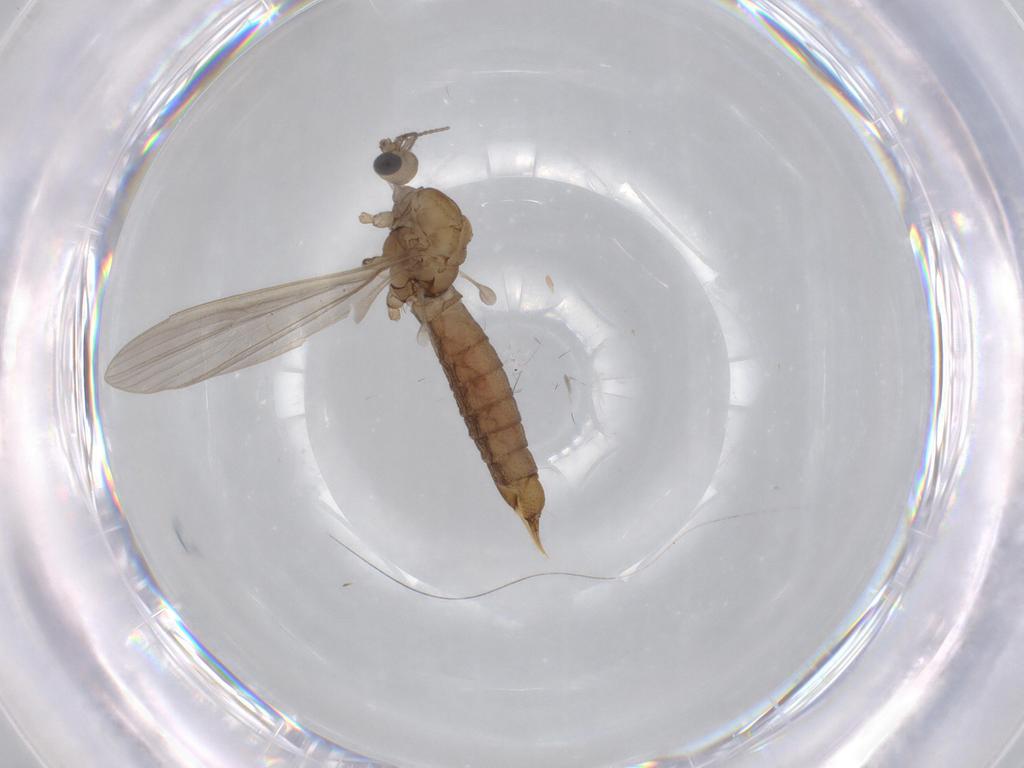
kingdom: Animalia
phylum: Arthropoda
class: Insecta
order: Diptera
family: Limoniidae
